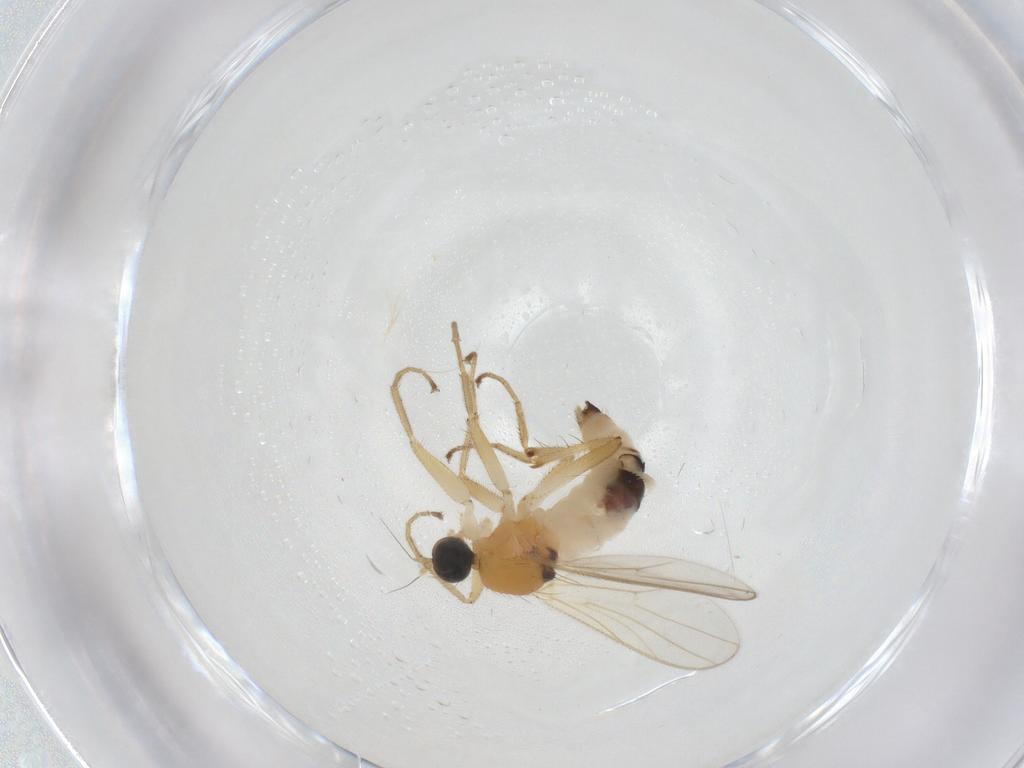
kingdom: Animalia
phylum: Arthropoda
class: Insecta
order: Diptera
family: Hybotidae
